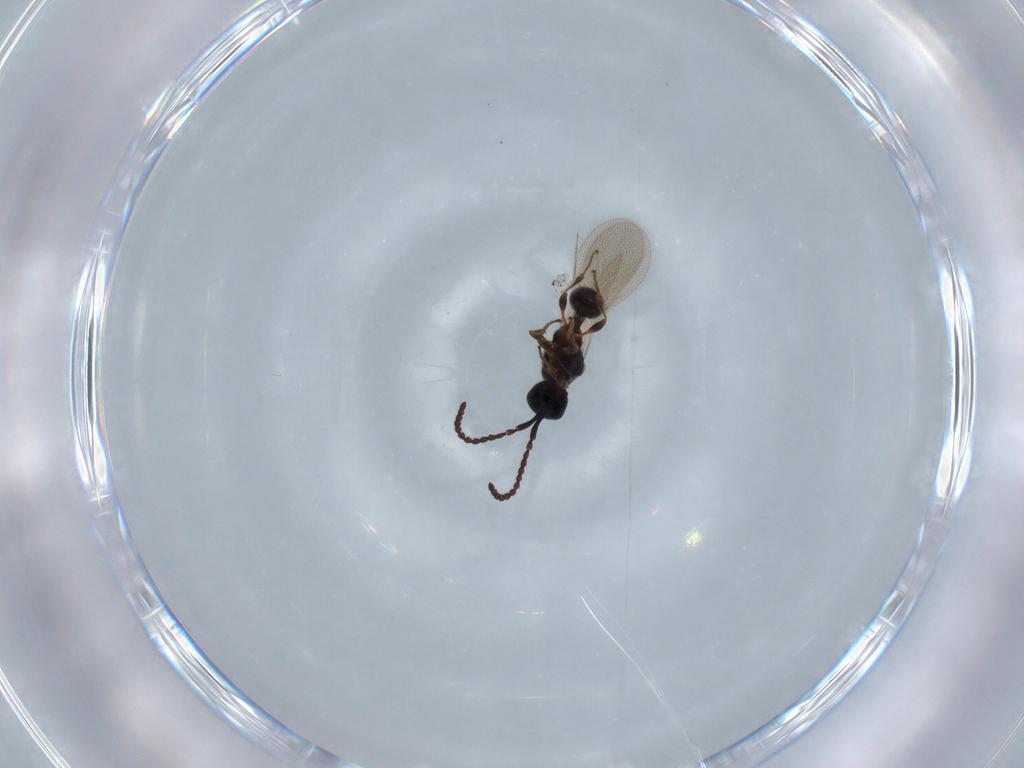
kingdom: Animalia
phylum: Arthropoda
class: Insecta
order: Hymenoptera
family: Diapriidae
